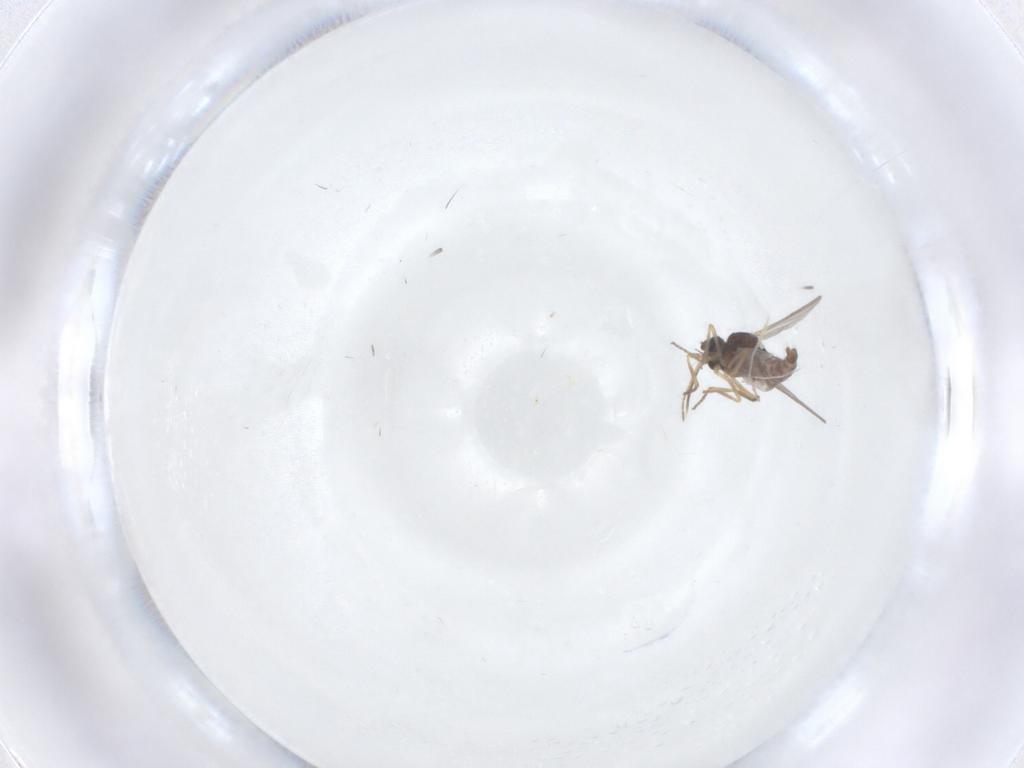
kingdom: Animalia
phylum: Arthropoda
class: Insecta
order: Diptera
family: Ceratopogonidae
